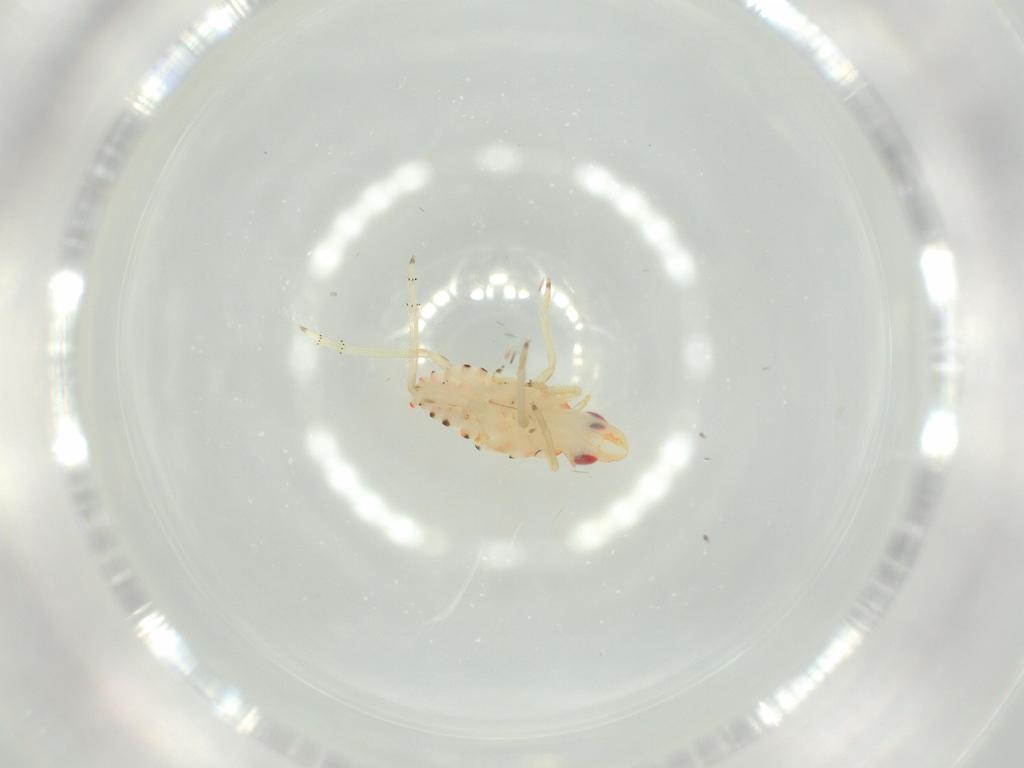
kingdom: Animalia
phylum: Arthropoda
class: Insecta
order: Hemiptera
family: Tropiduchidae
